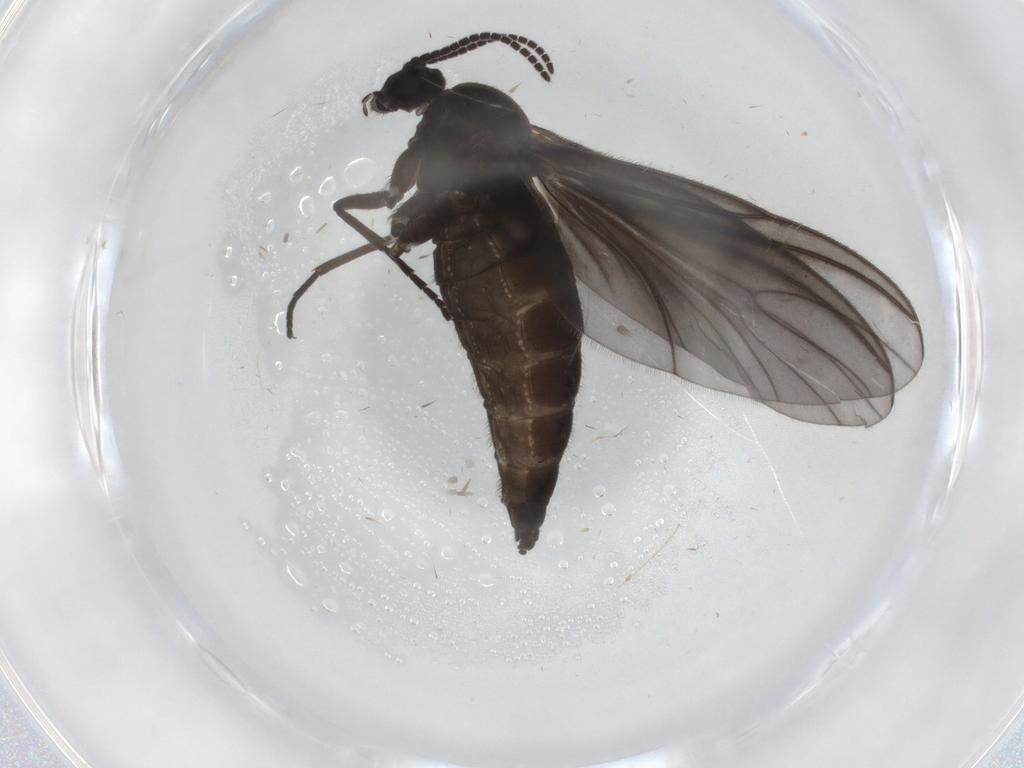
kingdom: Animalia
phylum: Arthropoda
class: Insecta
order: Diptera
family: Sciaridae
